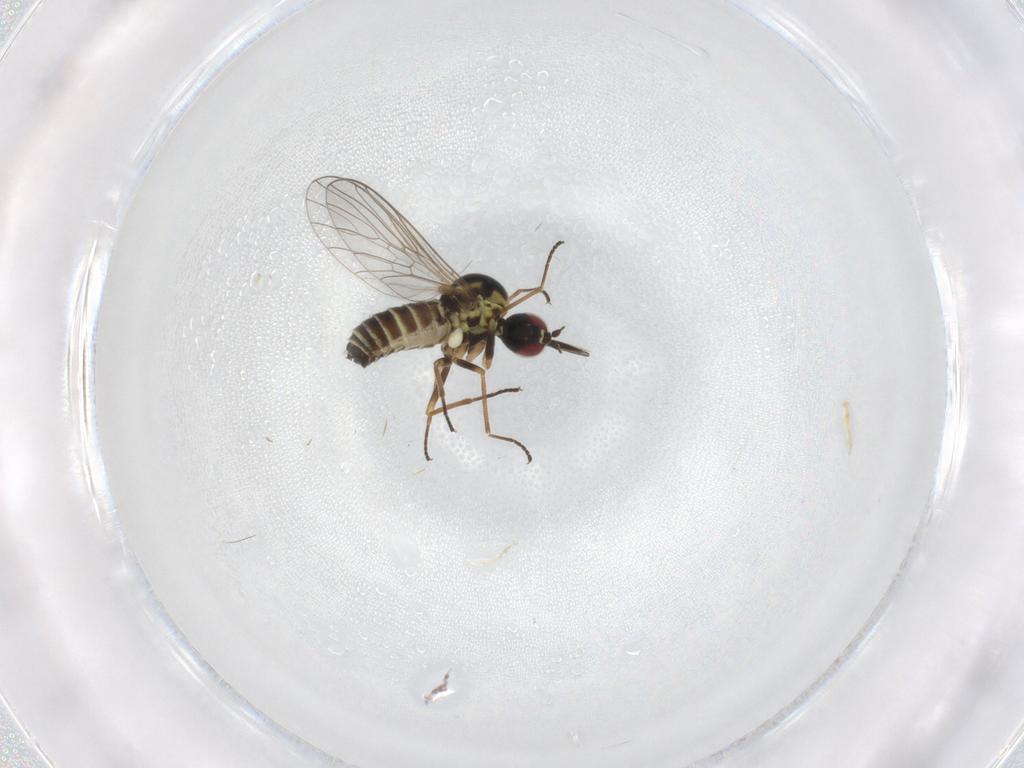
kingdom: Animalia
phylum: Arthropoda
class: Insecta
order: Diptera
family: Bombyliidae
